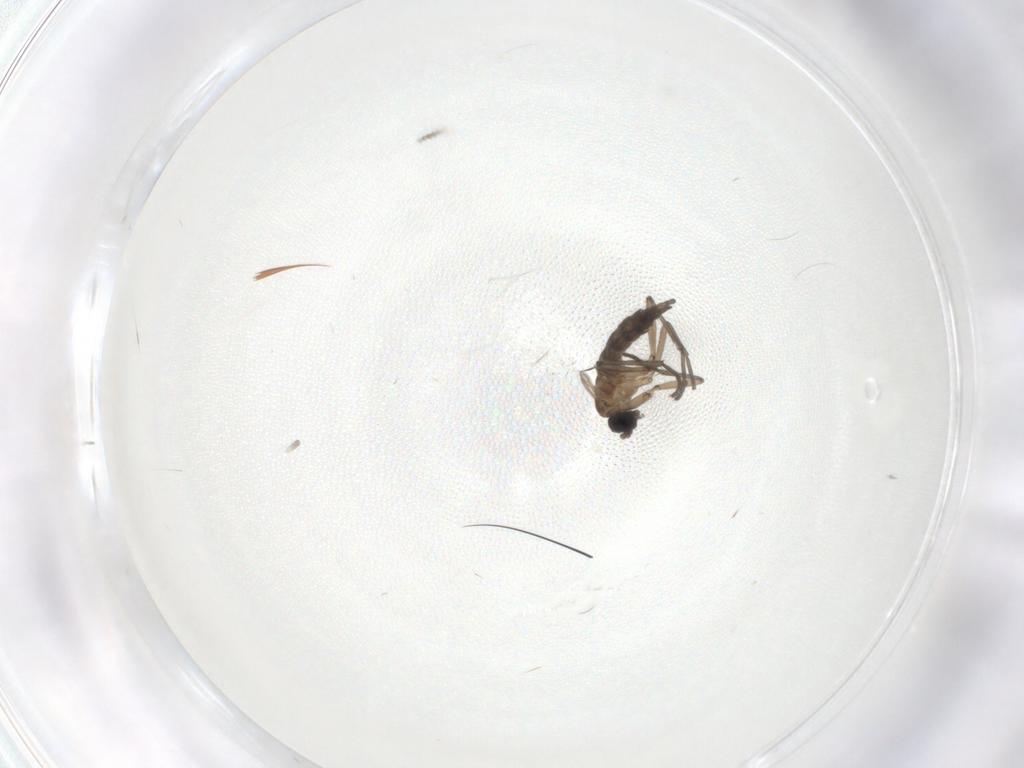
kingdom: Animalia
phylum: Arthropoda
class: Insecta
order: Diptera
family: Sciaridae
